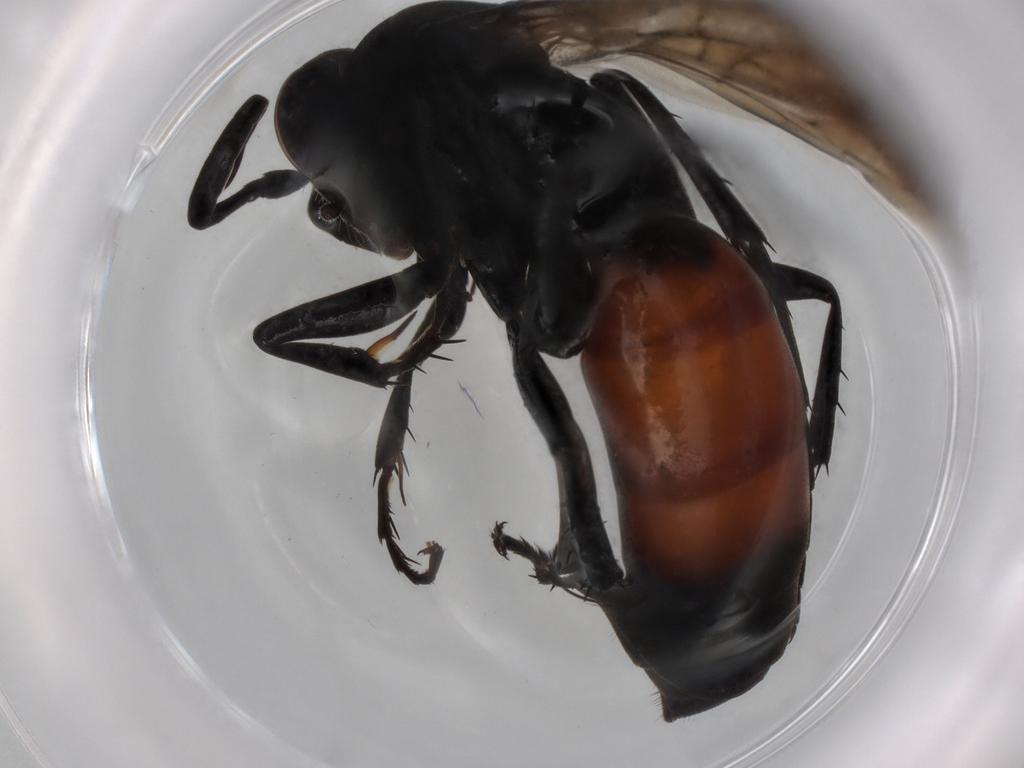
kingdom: Animalia
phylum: Arthropoda
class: Insecta
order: Hymenoptera
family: Pompilidae
